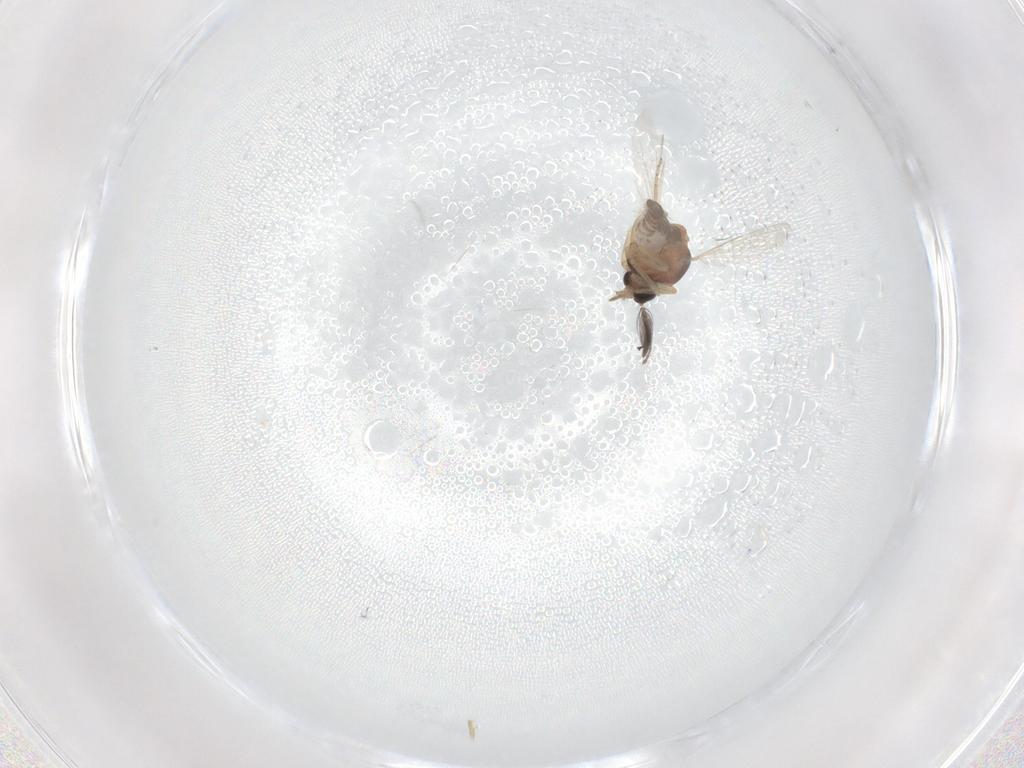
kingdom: Animalia
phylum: Arthropoda
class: Insecta
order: Diptera
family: Ceratopogonidae
